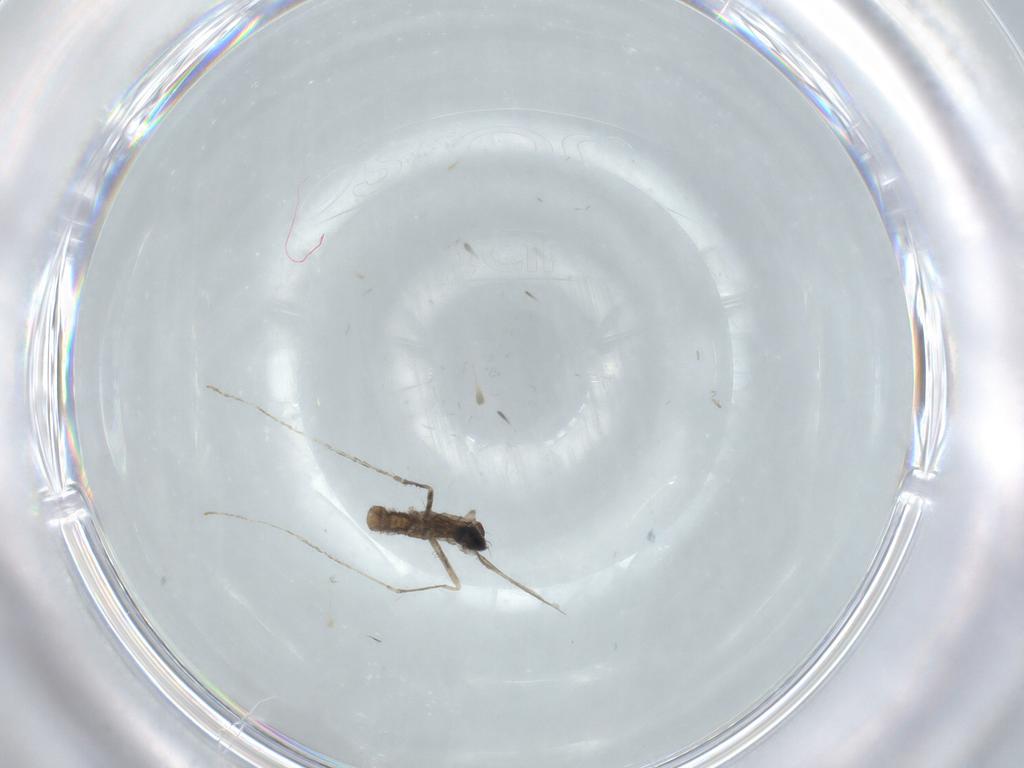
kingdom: Animalia
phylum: Arthropoda
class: Insecta
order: Diptera
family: Cecidomyiidae
